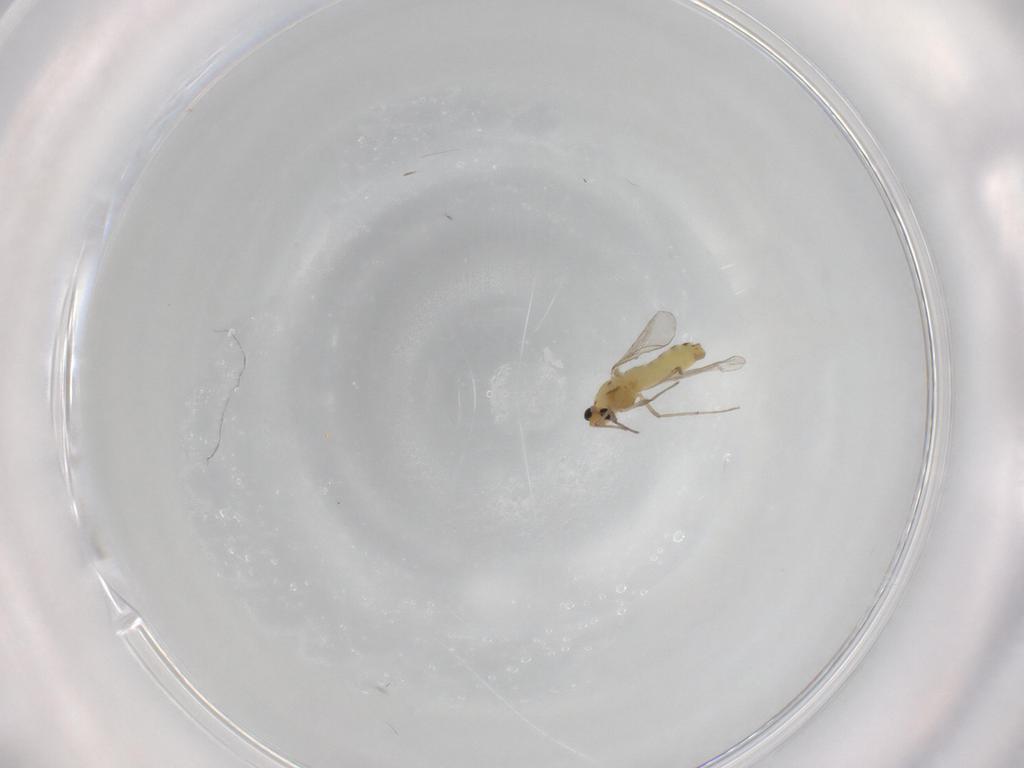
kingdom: Animalia
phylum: Arthropoda
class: Insecta
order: Diptera
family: Chironomidae
